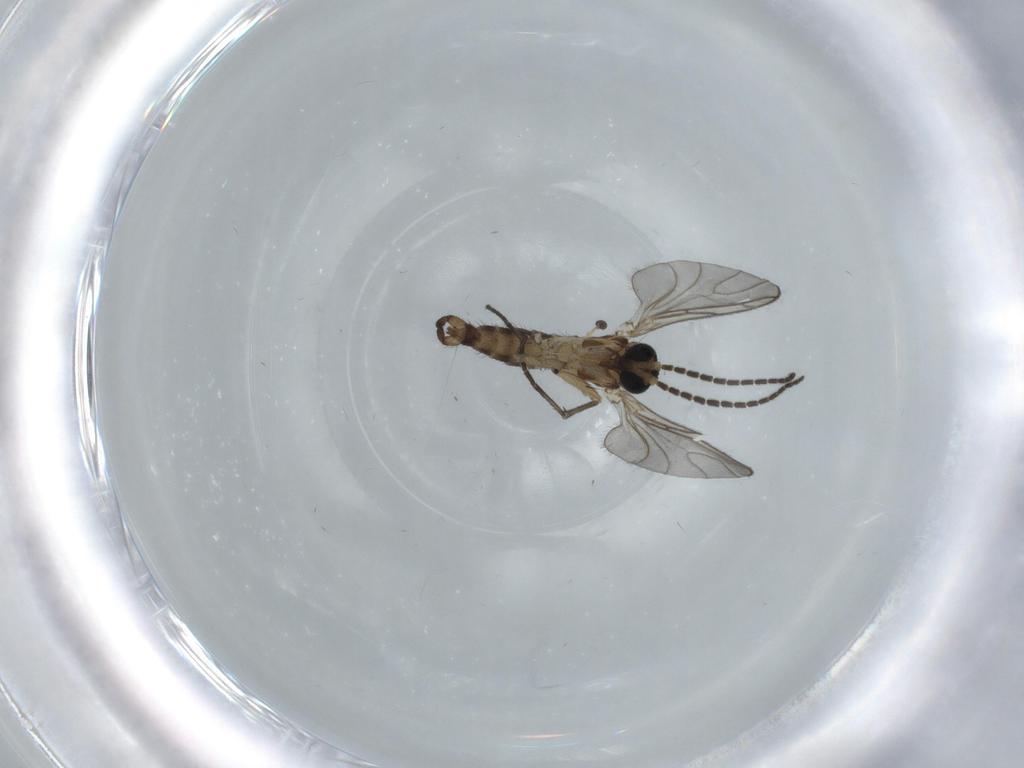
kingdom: Animalia
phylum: Arthropoda
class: Insecta
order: Diptera
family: Sciaridae
